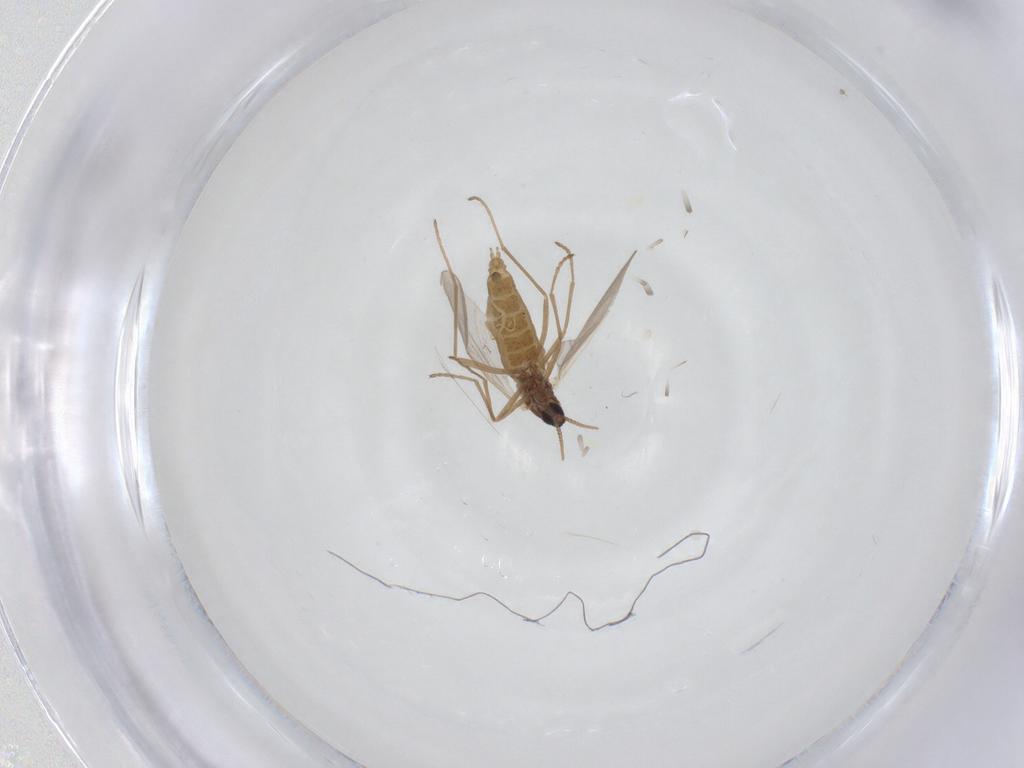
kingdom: Animalia
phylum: Arthropoda
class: Insecta
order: Diptera
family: Cecidomyiidae
